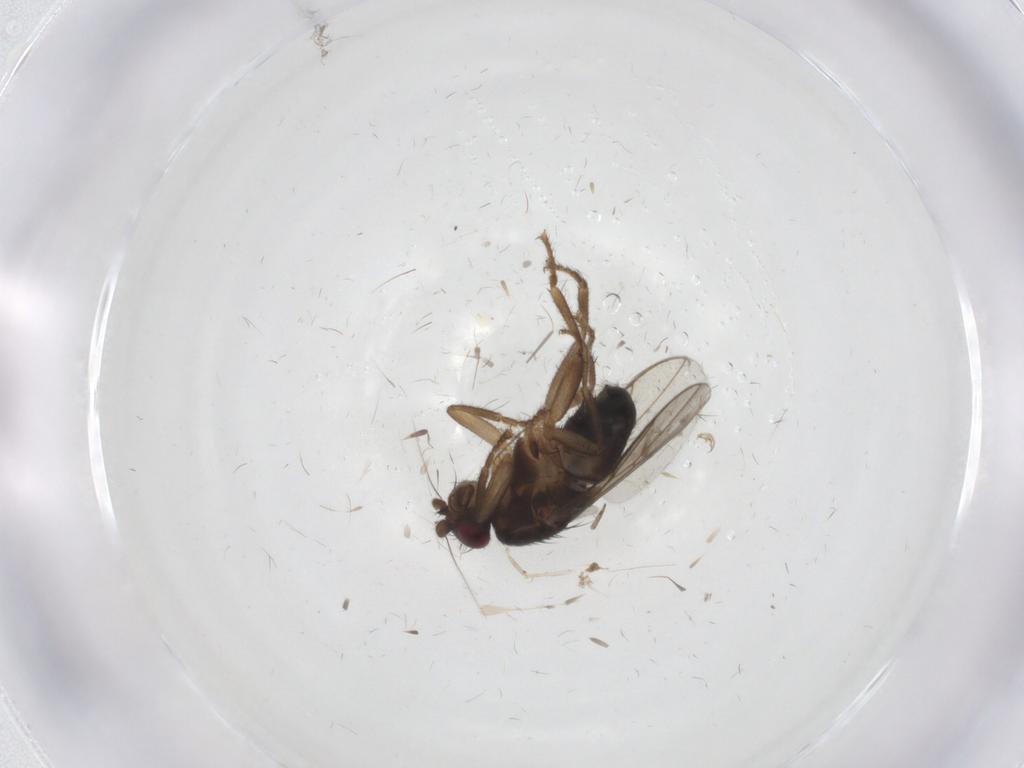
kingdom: Animalia
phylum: Arthropoda
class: Insecta
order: Diptera
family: Sphaeroceridae
